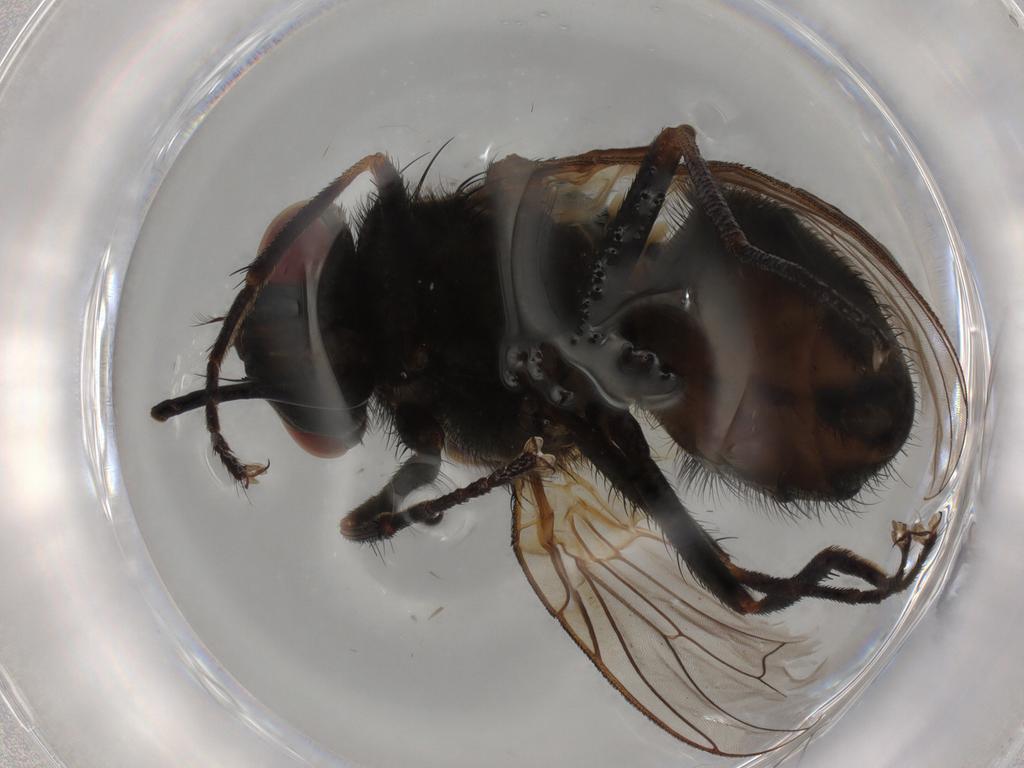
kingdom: Animalia
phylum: Arthropoda
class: Insecta
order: Diptera
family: Muscidae
